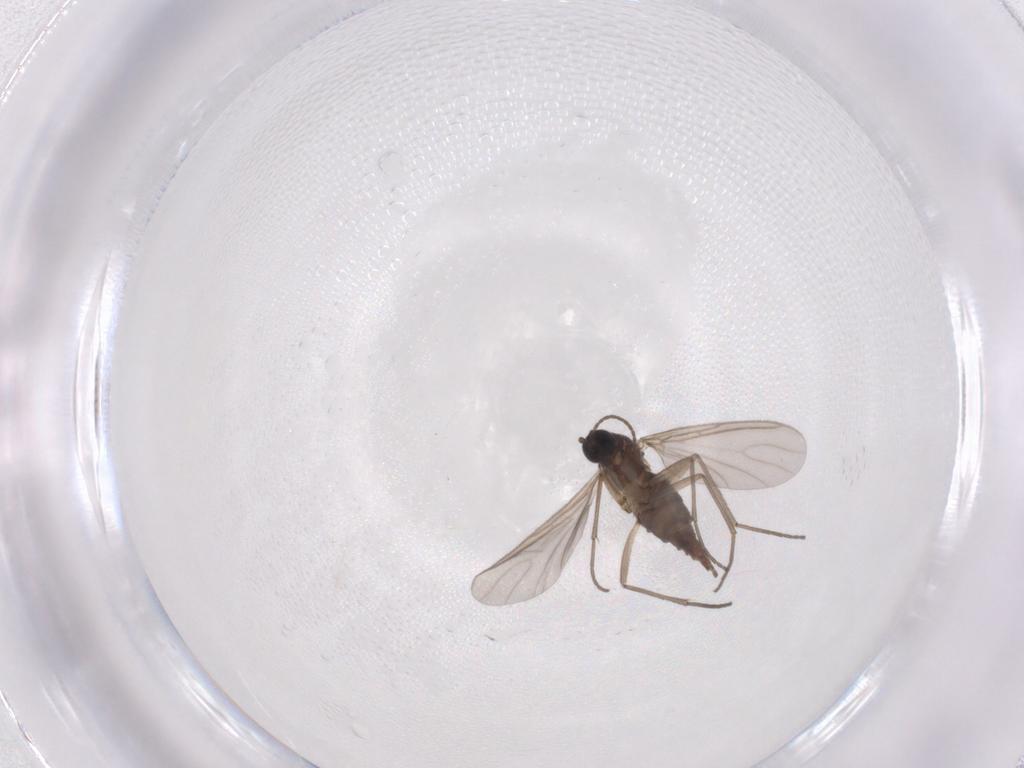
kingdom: Animalia
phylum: Arthropoda
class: Insecta
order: Diptera
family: Sciaridae
